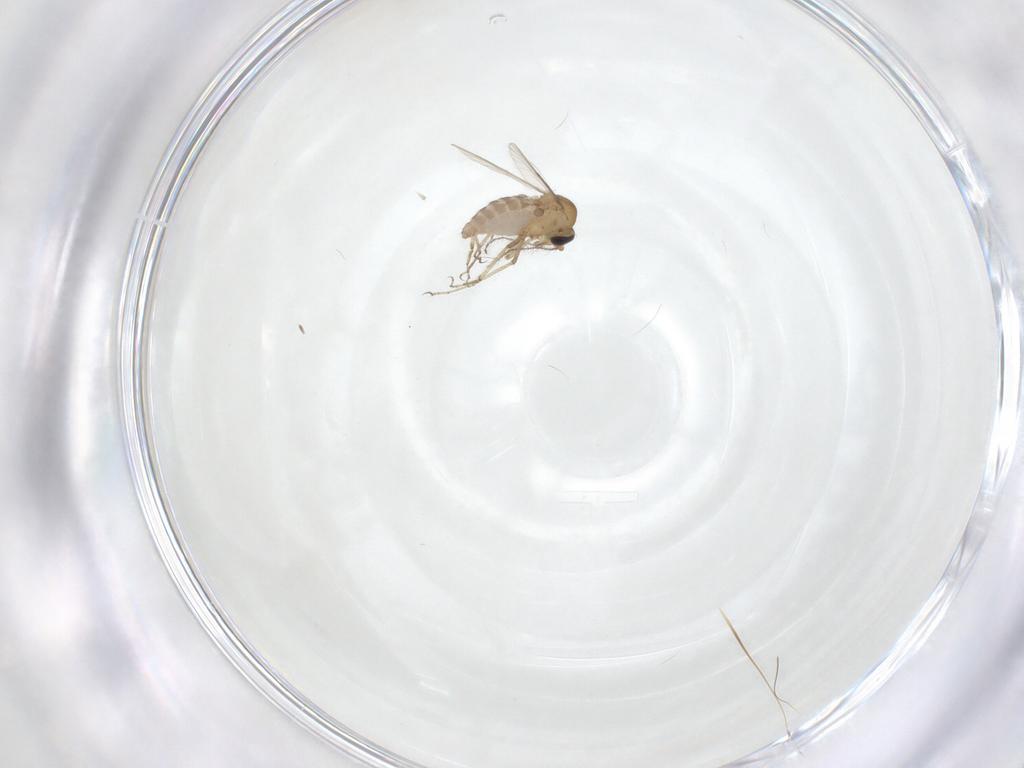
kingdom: Animalia
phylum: Arthropoda
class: Insecta
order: Diptera
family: Ceratopogonidae
